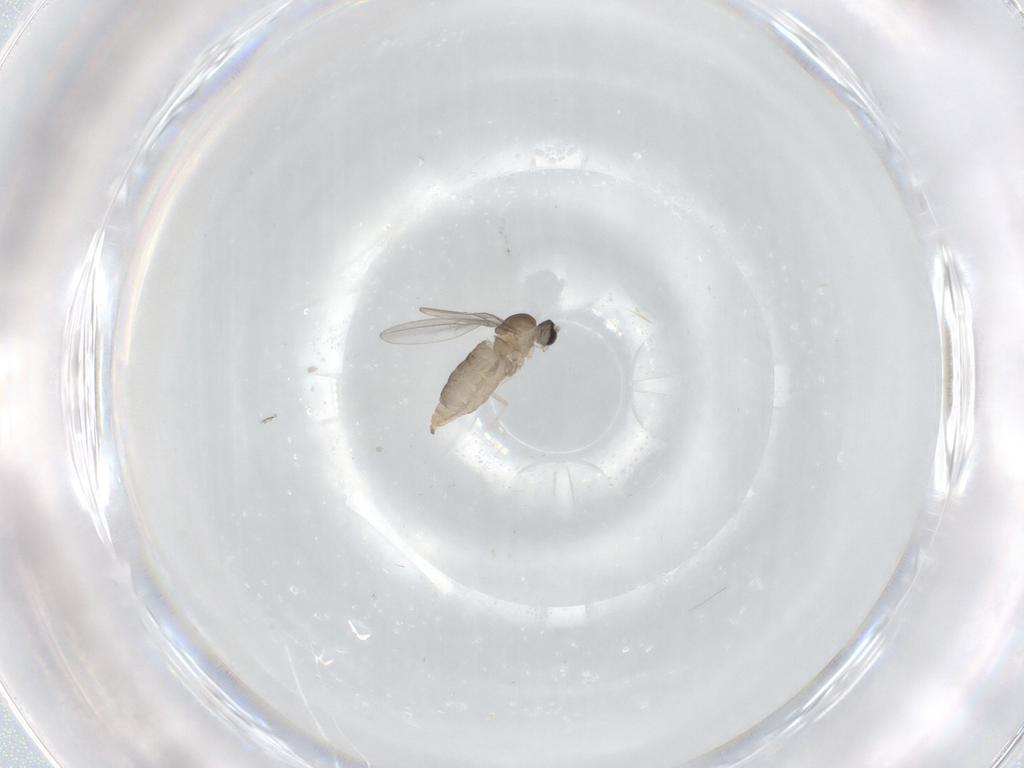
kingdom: Animalia
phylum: Arthropoda
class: Insecta
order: Diptera
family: Cecidomyiidae
